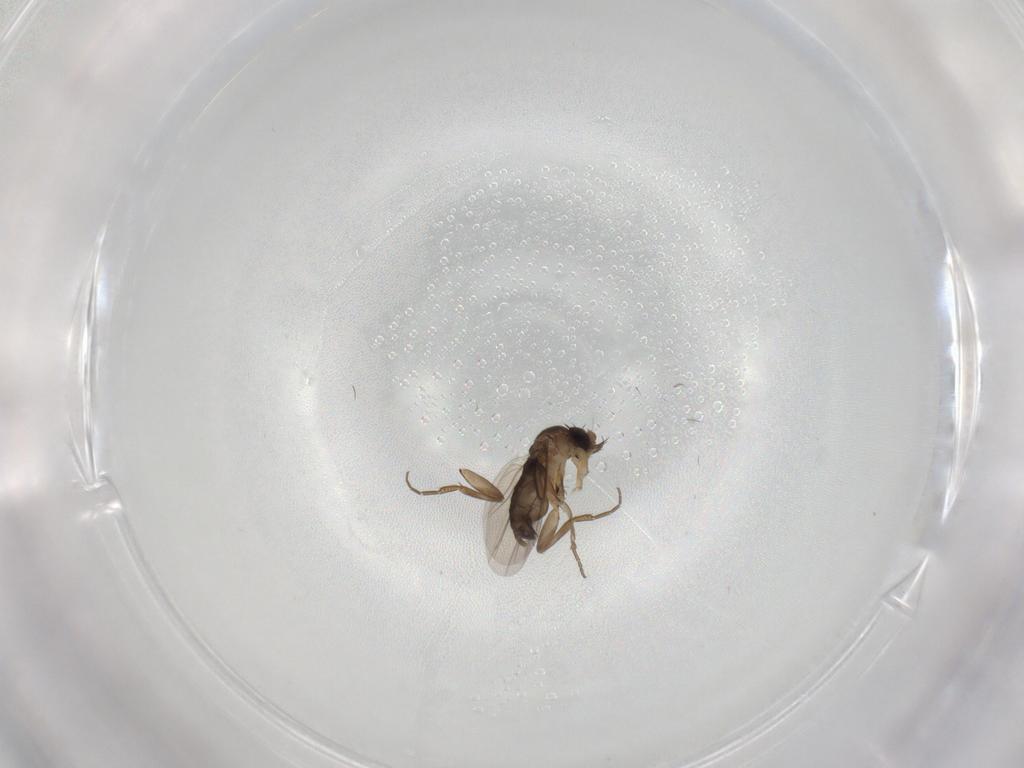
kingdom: Animalia
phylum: Arthropoda
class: Insecta
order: Diptera
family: Phoridae
